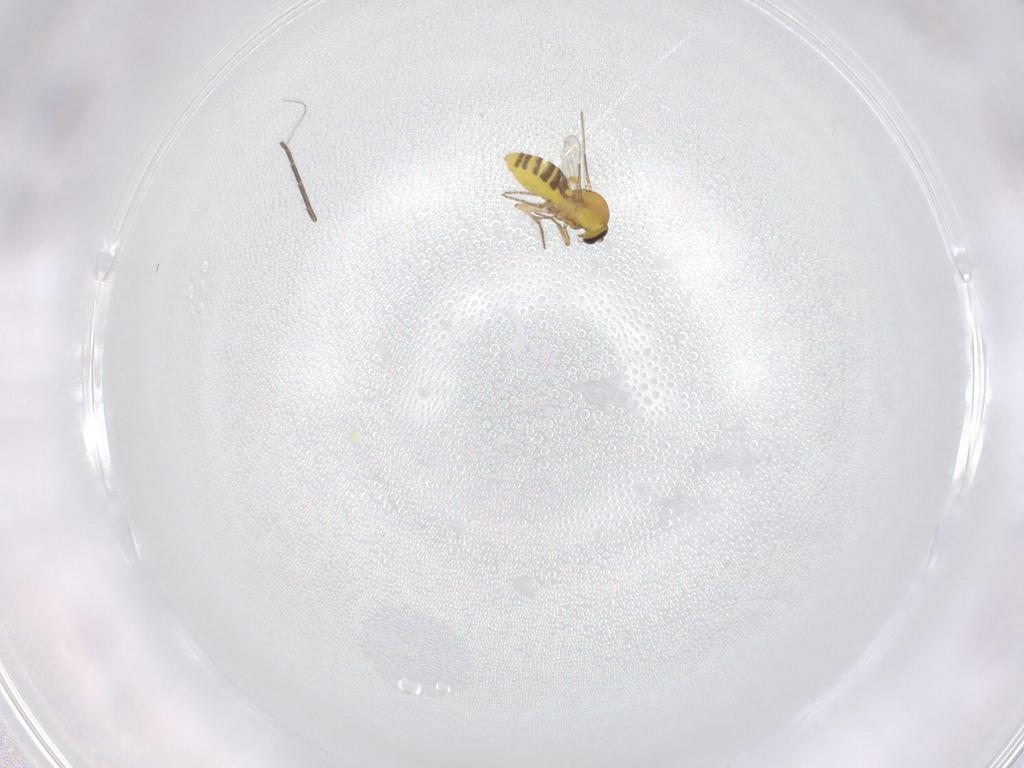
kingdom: Animalia
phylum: Arthropoda
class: Insecta
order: Diptera
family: Mycetophilidae
